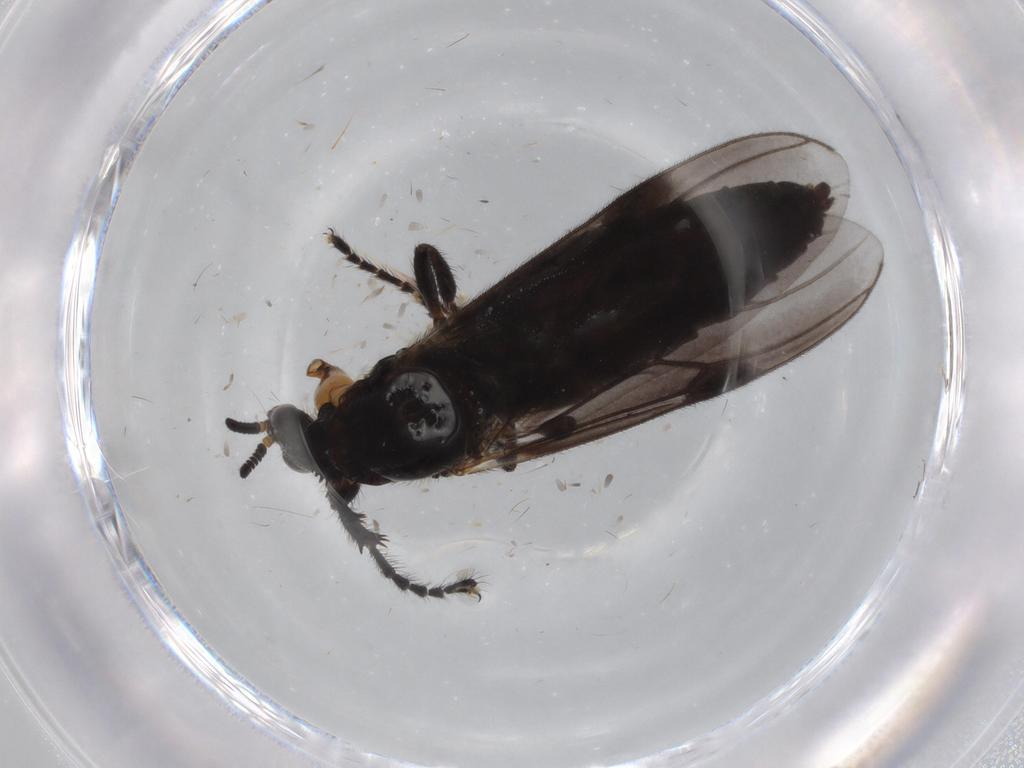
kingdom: Animalia
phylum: Arthropoda
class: Insecta
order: Diptera
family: Bibionidae
